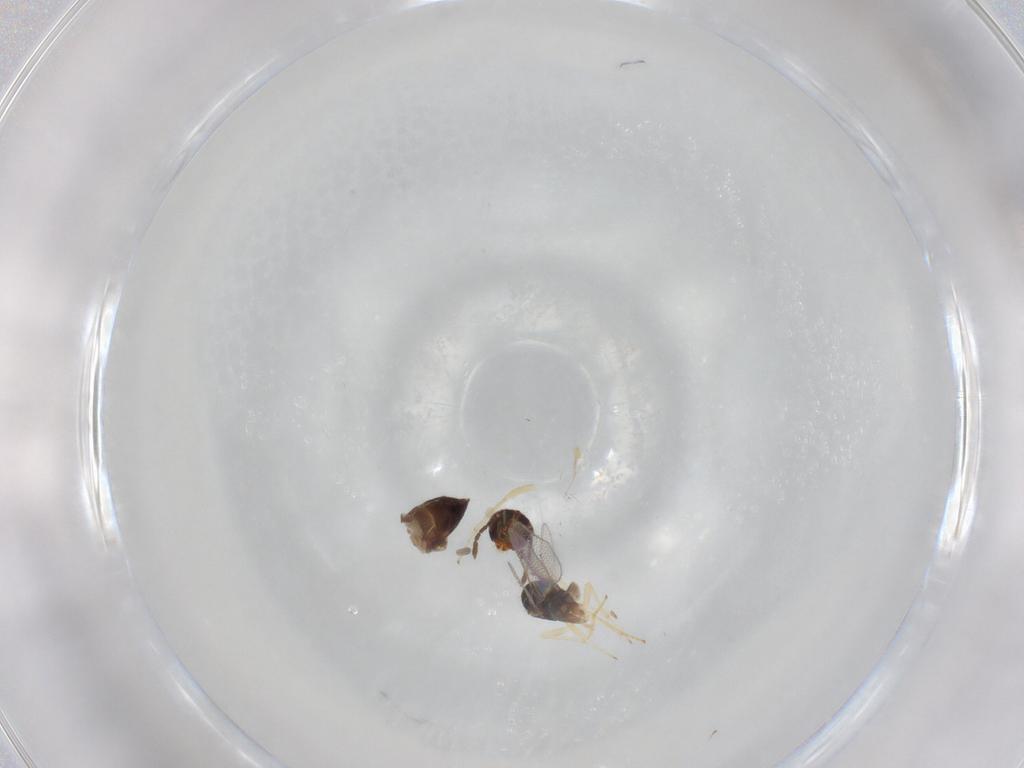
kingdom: Animalia
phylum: Arthropoda
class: Insecta
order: Hymenoptera
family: Eulophidae
